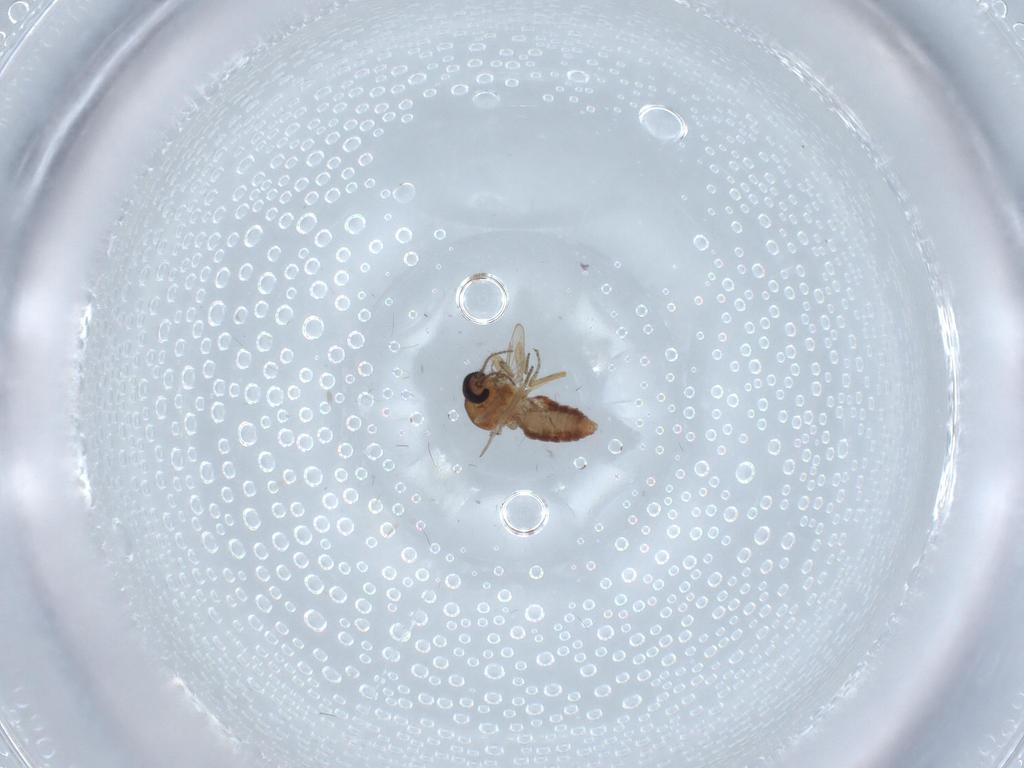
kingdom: Animalia
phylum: Arthropoda
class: Insecta
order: Diptera
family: Ceratopogonidae
